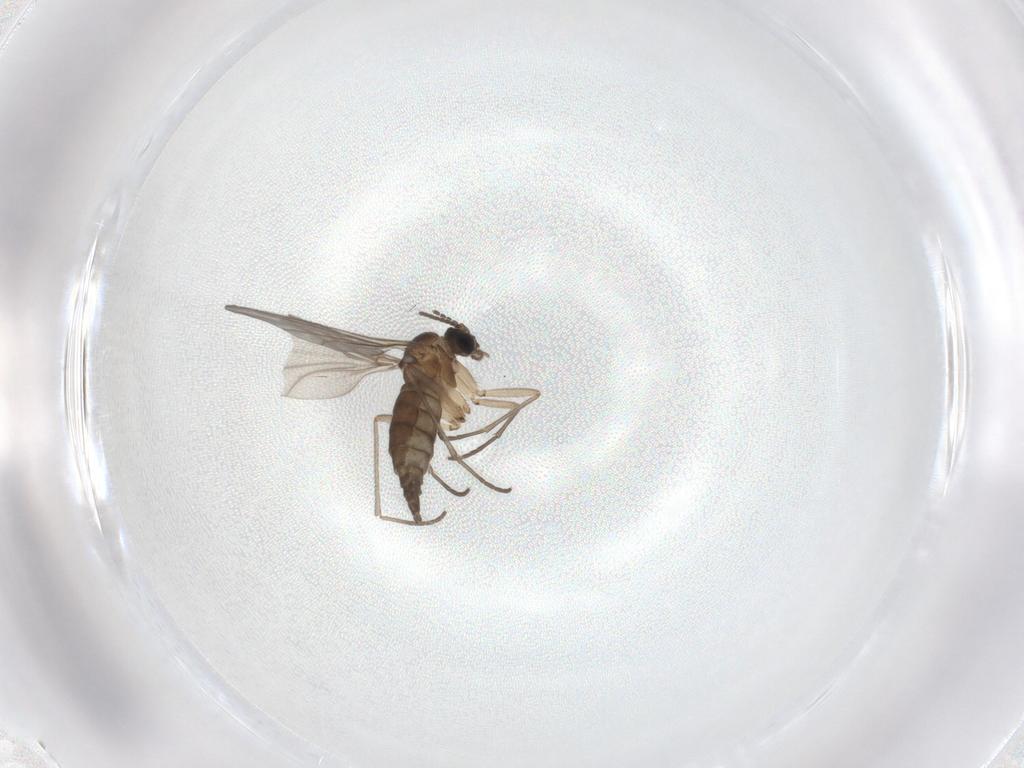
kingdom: Animalia
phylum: Arthropoda
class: Insecta
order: Diptera
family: Sciaridae
